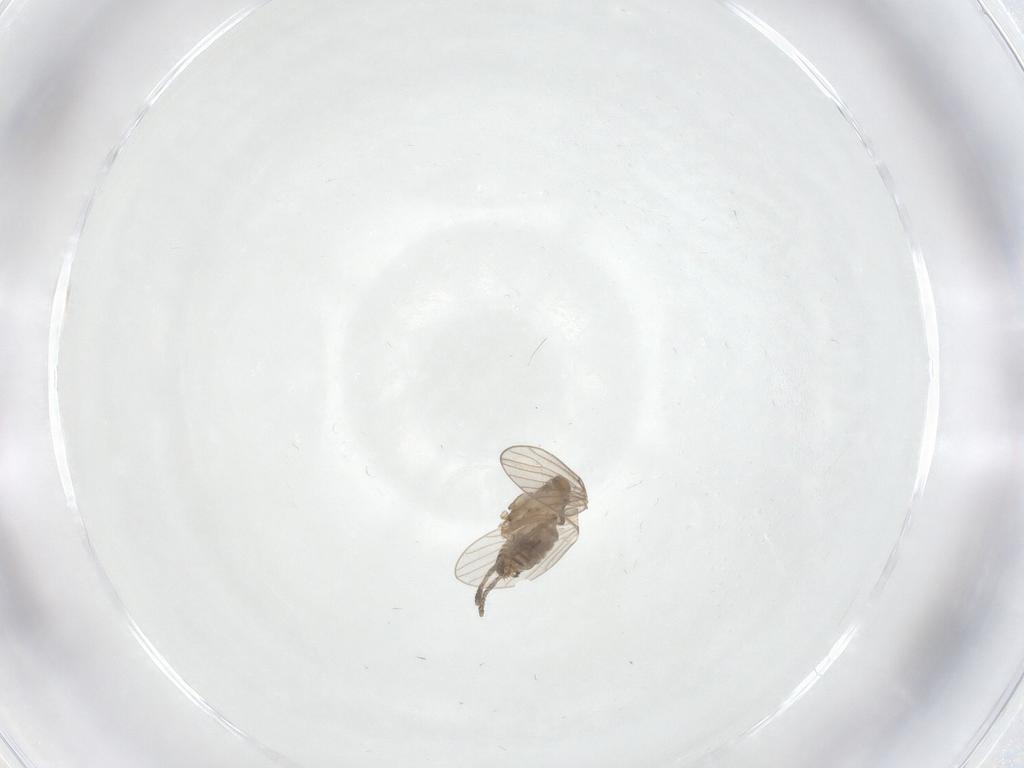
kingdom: Animalia
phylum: Arthropoda
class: Insecta
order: Diptera
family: Psychodidae
